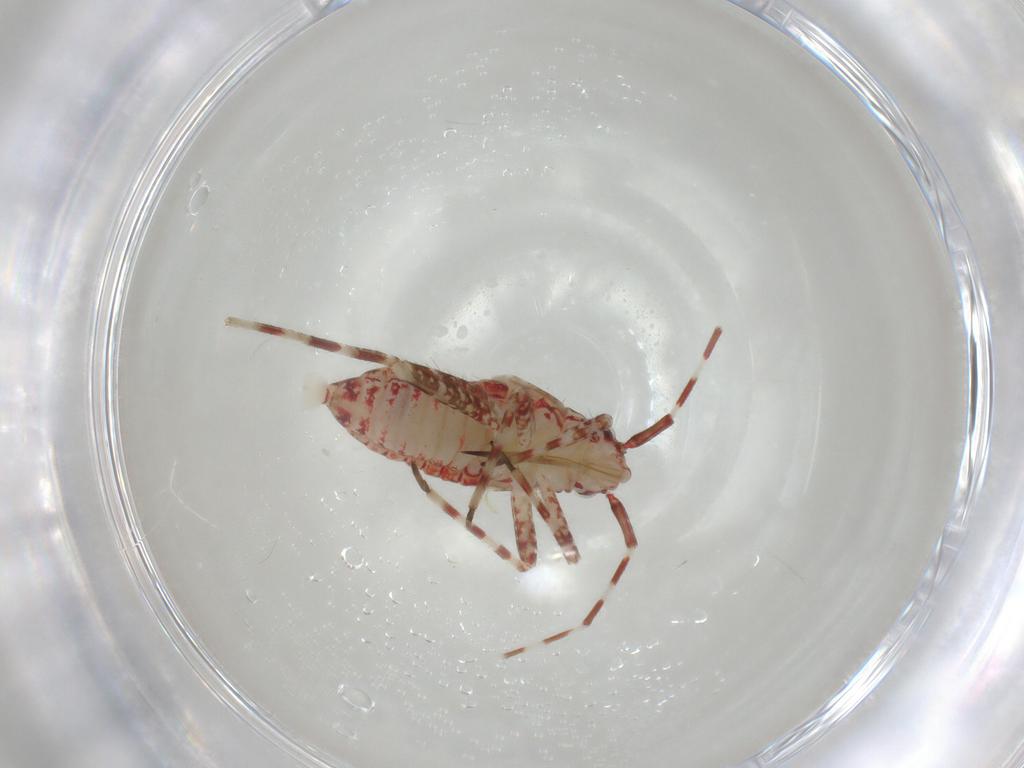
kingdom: Animalia
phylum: Arthropoda
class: Insecta
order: Hemiptera
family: Miridae
